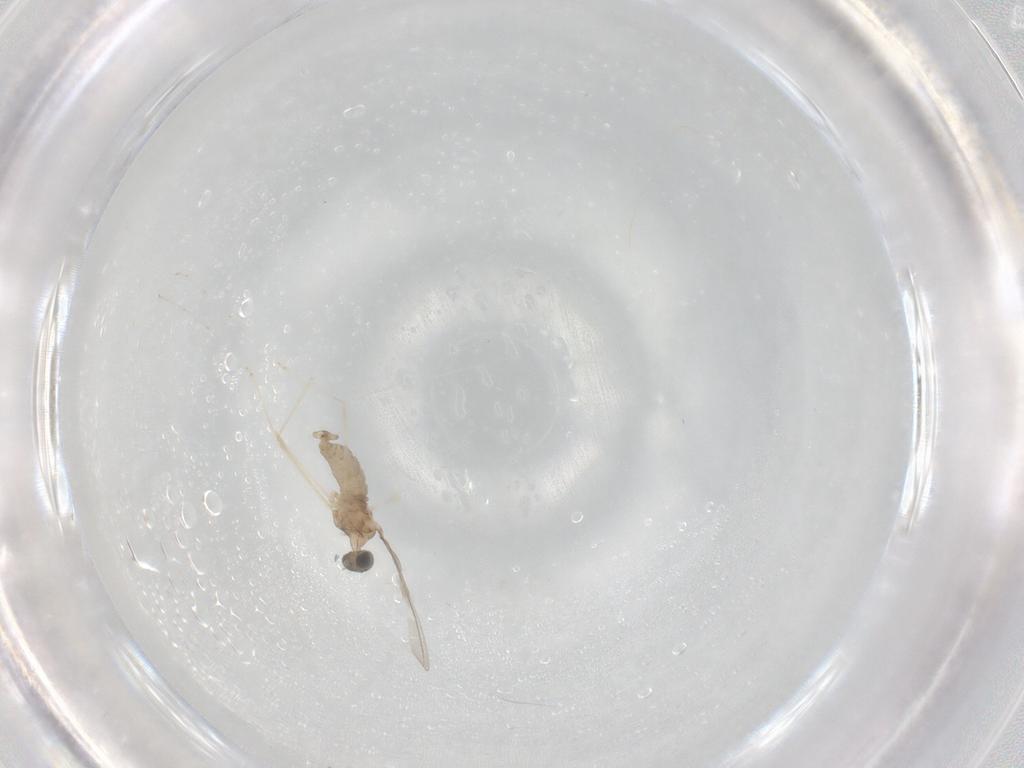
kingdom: Animalia
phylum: Arthropoda
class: Insecta
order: Diptera
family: Cecidomyiidae
